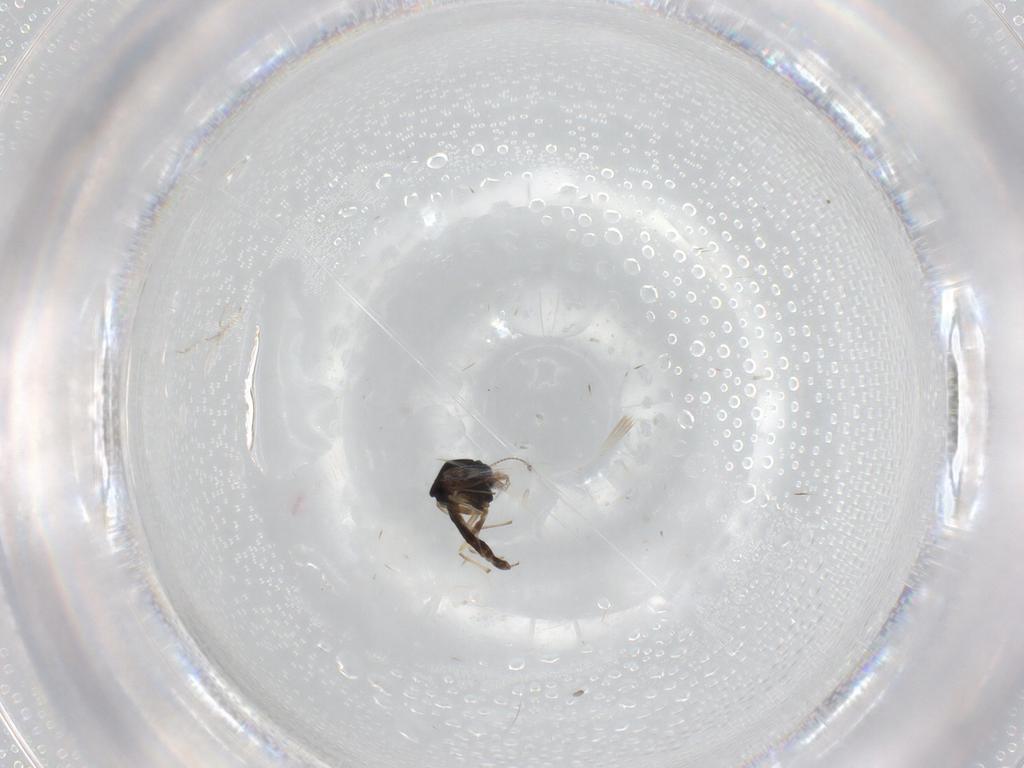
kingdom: Animalia
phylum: Arthropoda
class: Insecta
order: Diptera
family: Chironomidae
